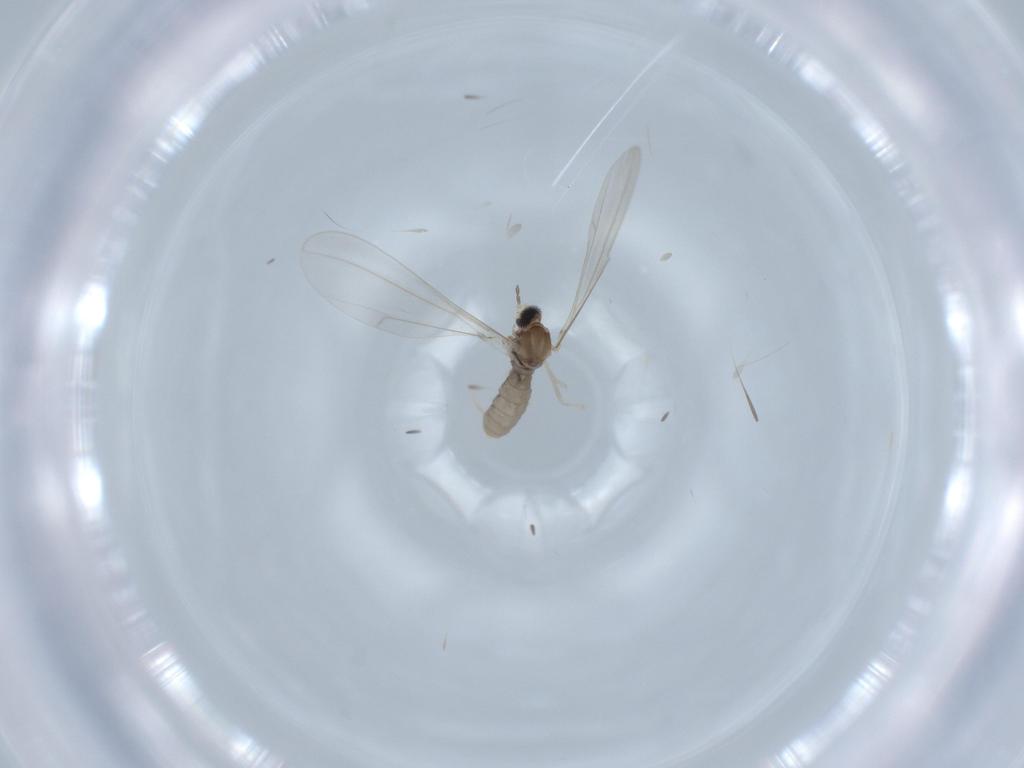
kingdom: Animalia
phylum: Arthropoda
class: Insecta
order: Diptera
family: Cecidomyiidae
